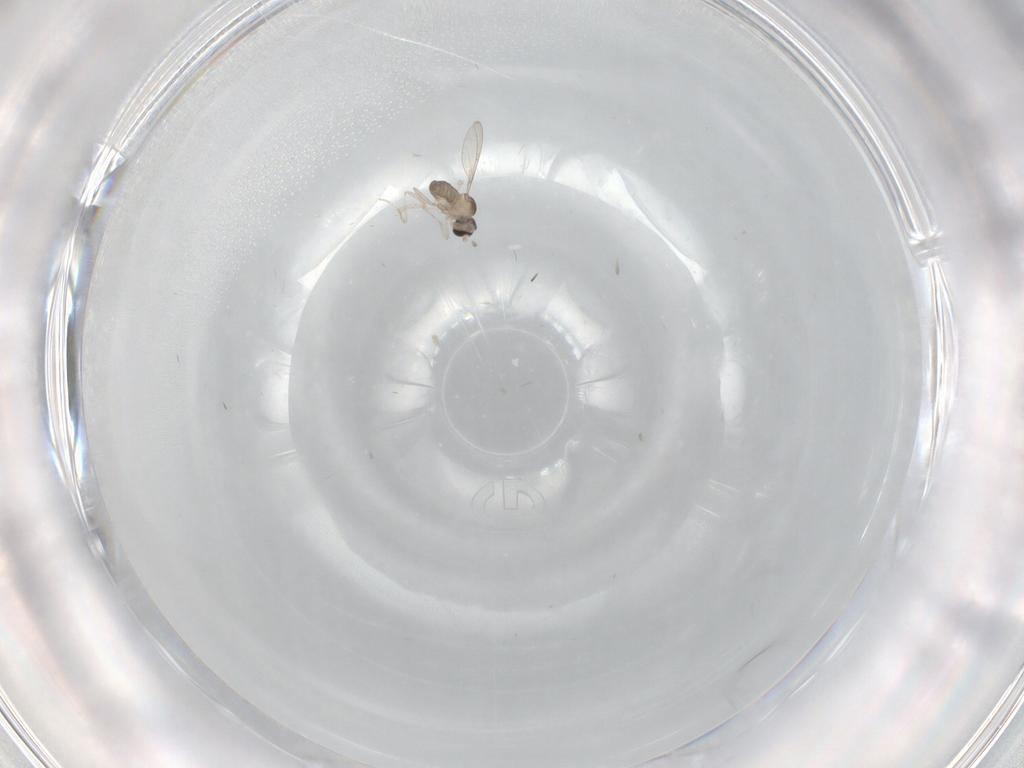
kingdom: Animalia
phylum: Arthropoda
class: Insecta
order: Diptera
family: Cecidomyiidae
